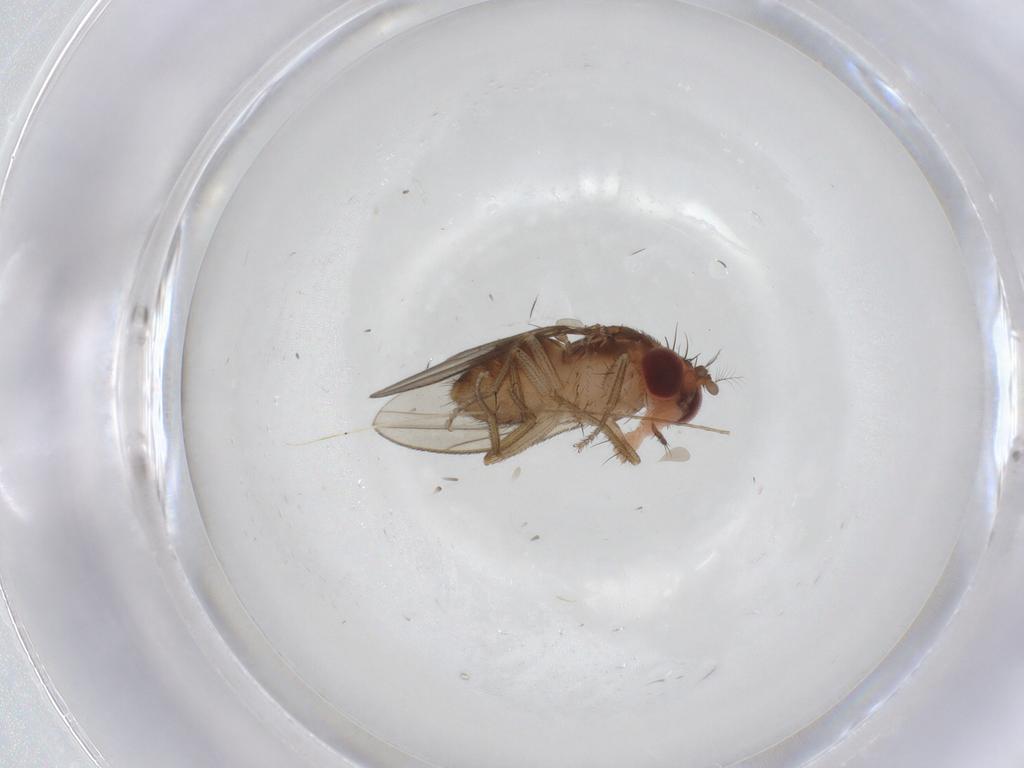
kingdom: Animalia
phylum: Arthropoda
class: Insecta
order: Diptera
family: Drosophilidae
